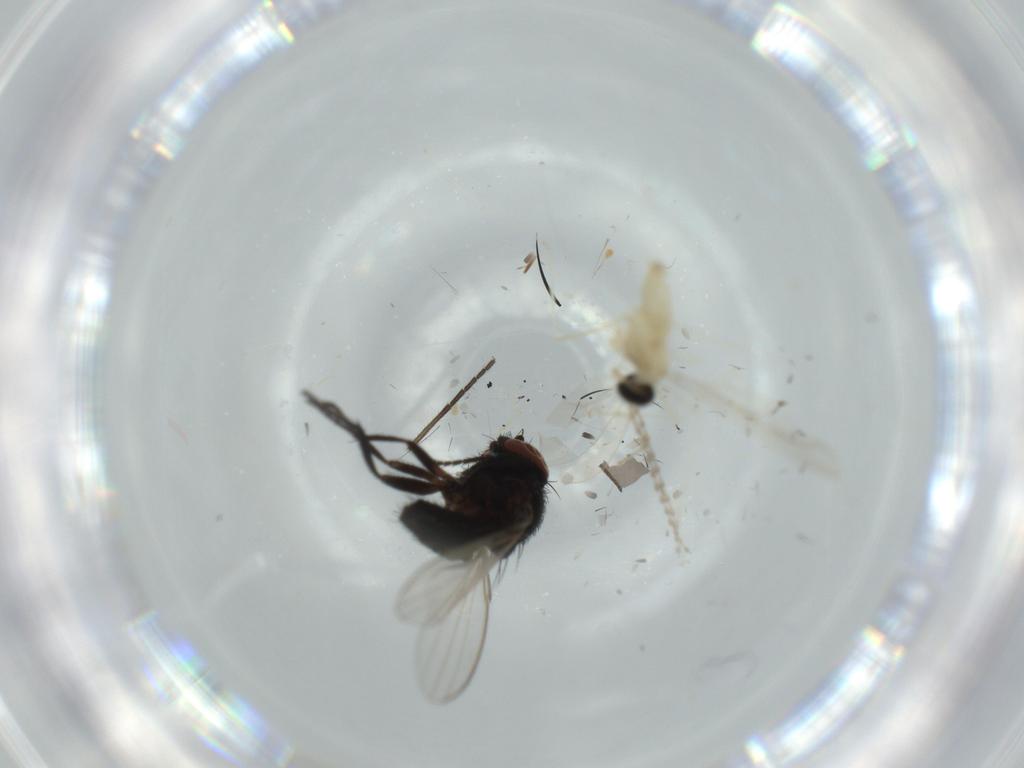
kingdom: Animalia
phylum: Arthropoda
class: Insecta
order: Diptera
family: Cecidomyiidae
